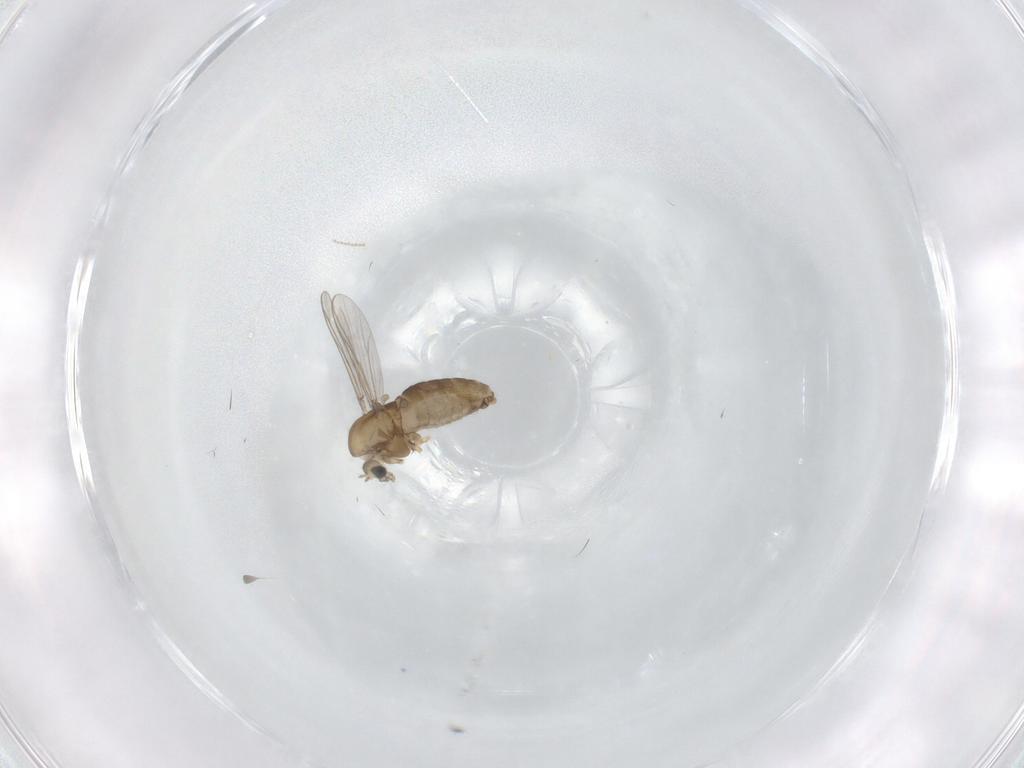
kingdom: Animalia
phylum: Arthropoda
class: Insecta
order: Diptera
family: Chironomidae
